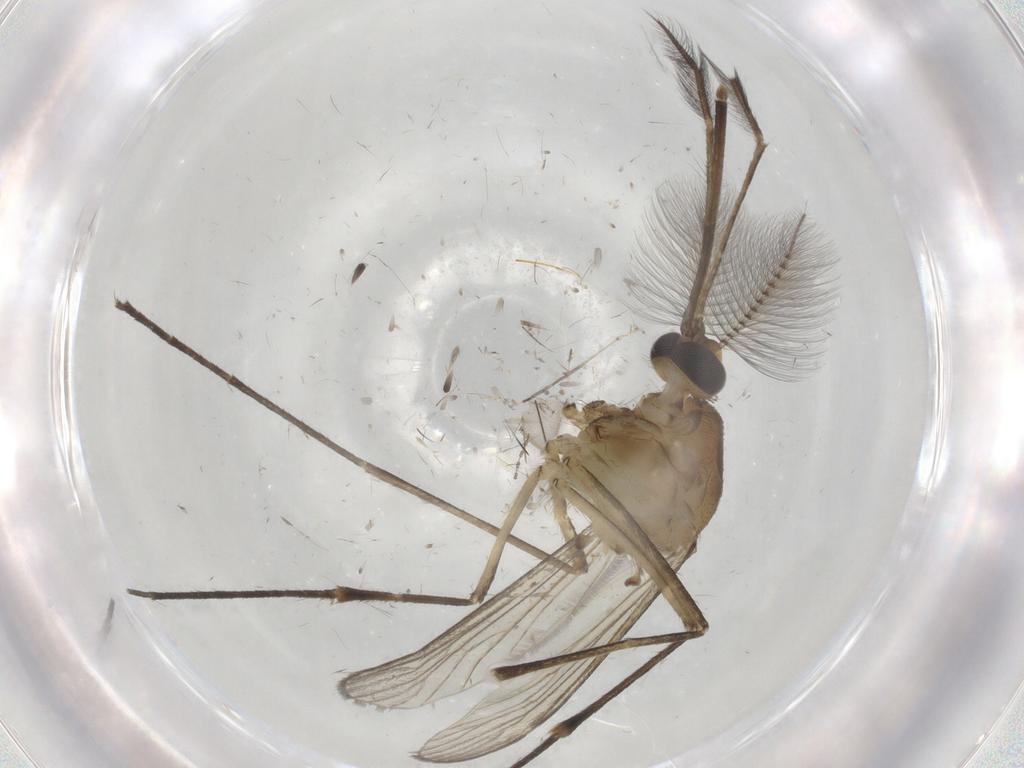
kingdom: Animalia
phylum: Arthropoda
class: Insecta
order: Diptera
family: Cecidomyiidae
